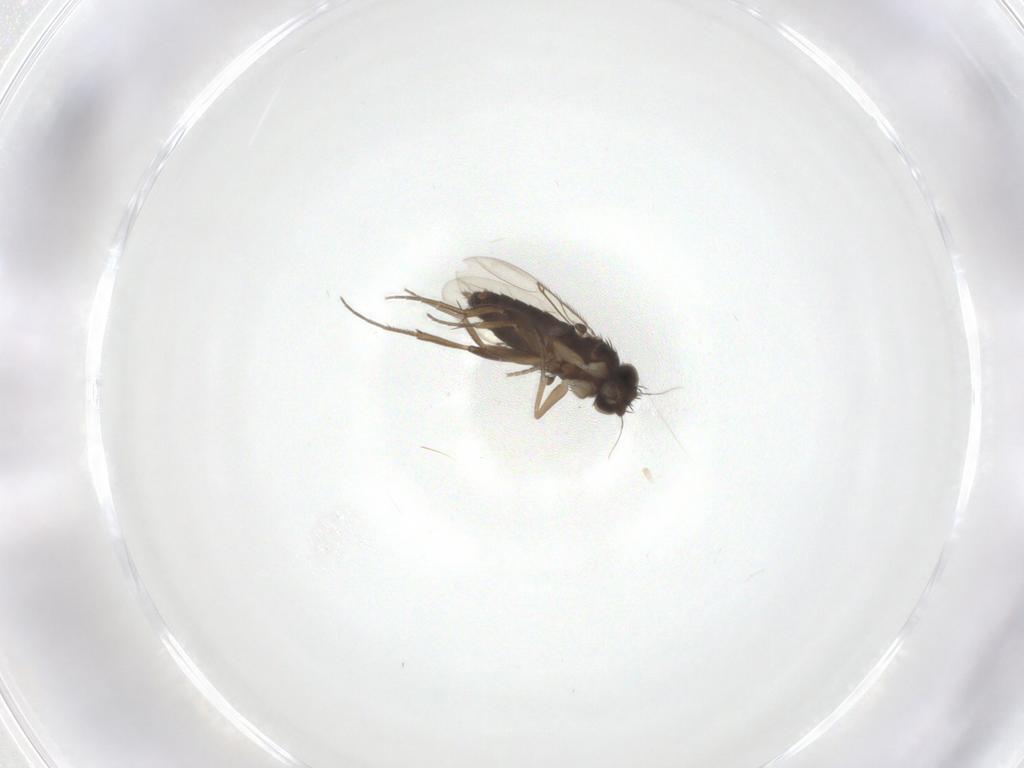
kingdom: Animalia
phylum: Arthropoda
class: Insecta
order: Diptera
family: Phoridae
